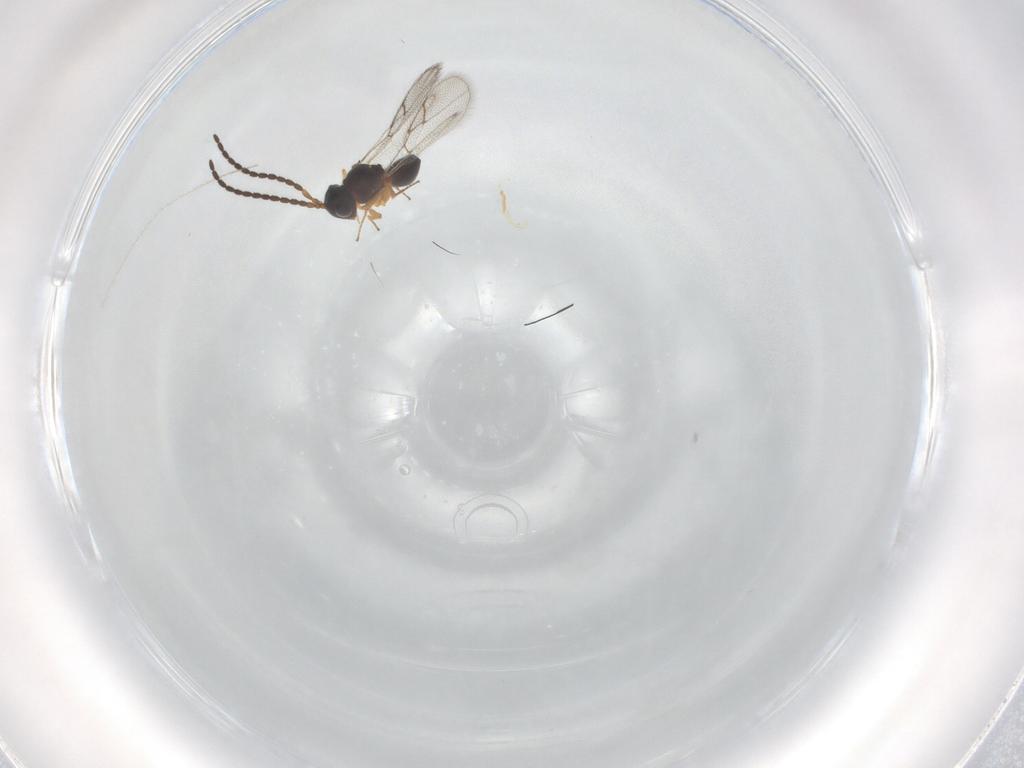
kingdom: Animalia
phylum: Arthropoda
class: Insecta
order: Hymenoptera
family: Figitidae
